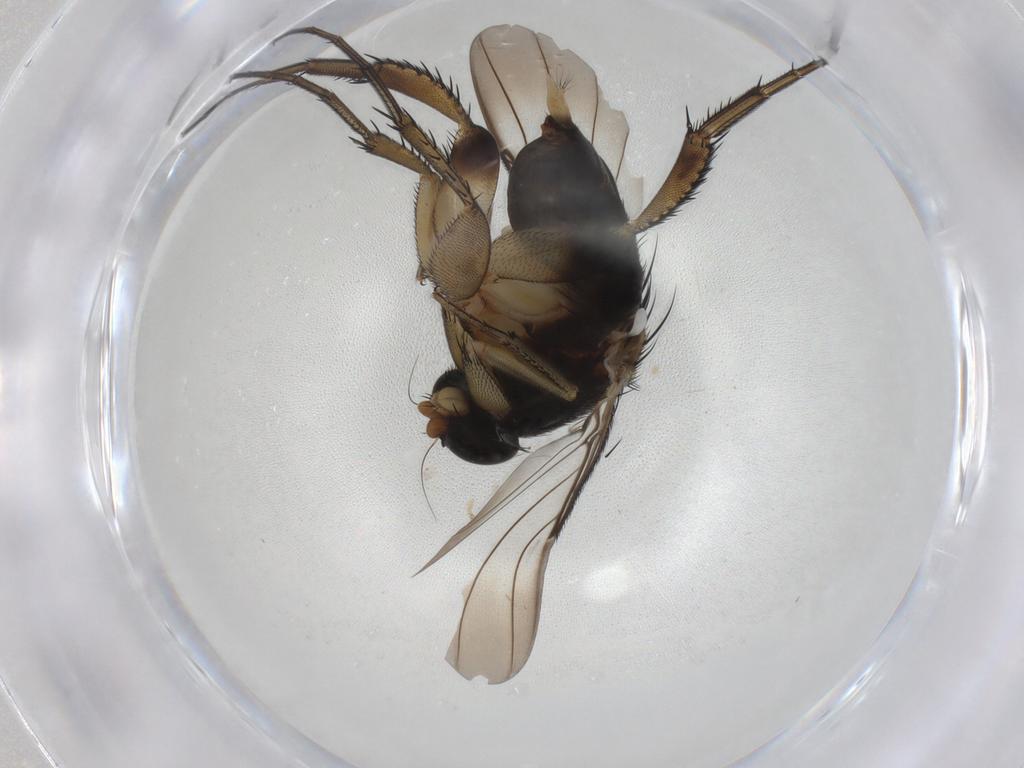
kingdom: Animalia
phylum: Arthropoda
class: Insecta
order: Diptera
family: Phoridae
